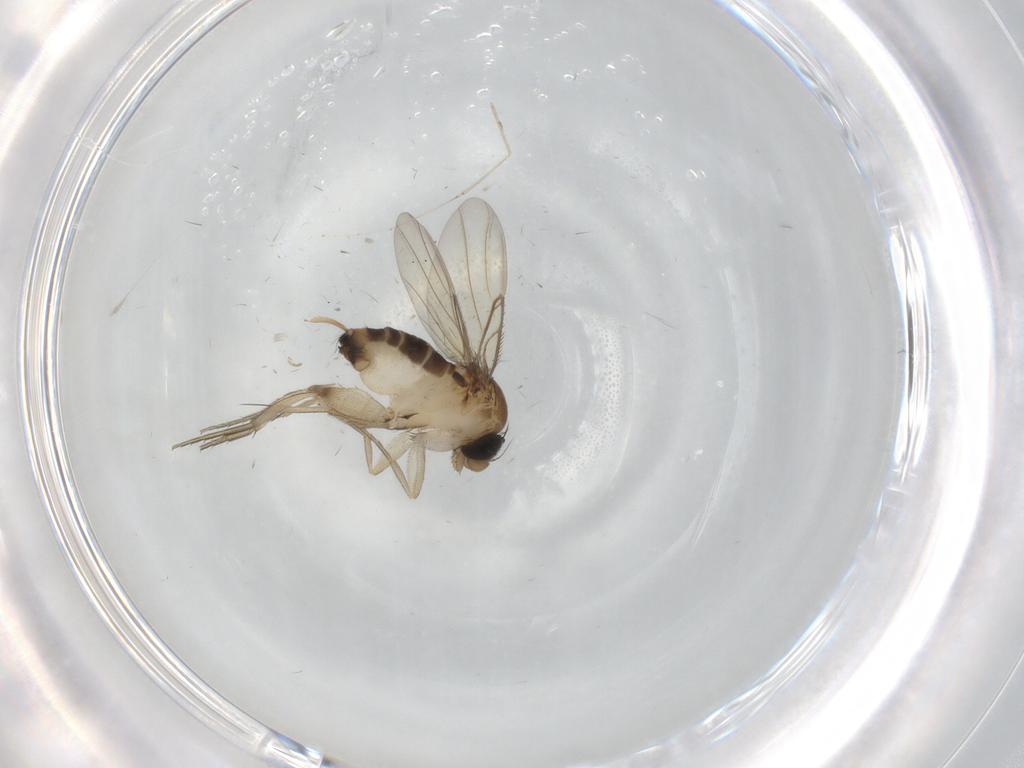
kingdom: Animalia
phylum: Arthropoda
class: Insecta
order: Diptera
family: Phoridae
